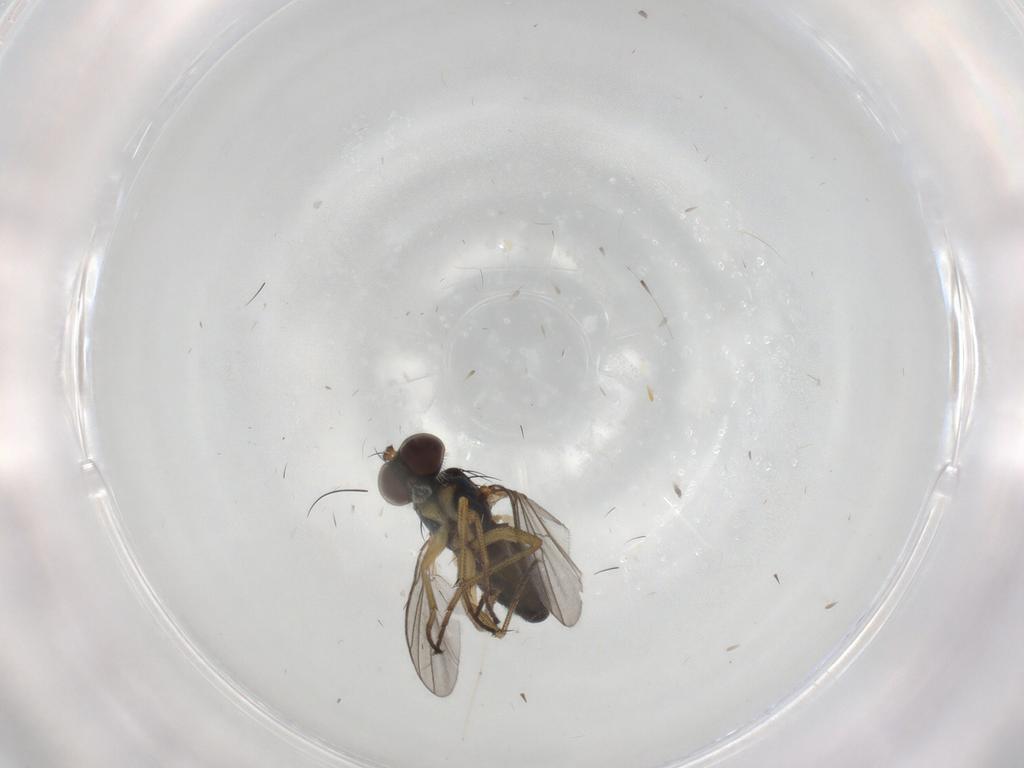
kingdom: Animalia
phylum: Arthropoda
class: Insecta
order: Diptera
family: Dolichopodidae
